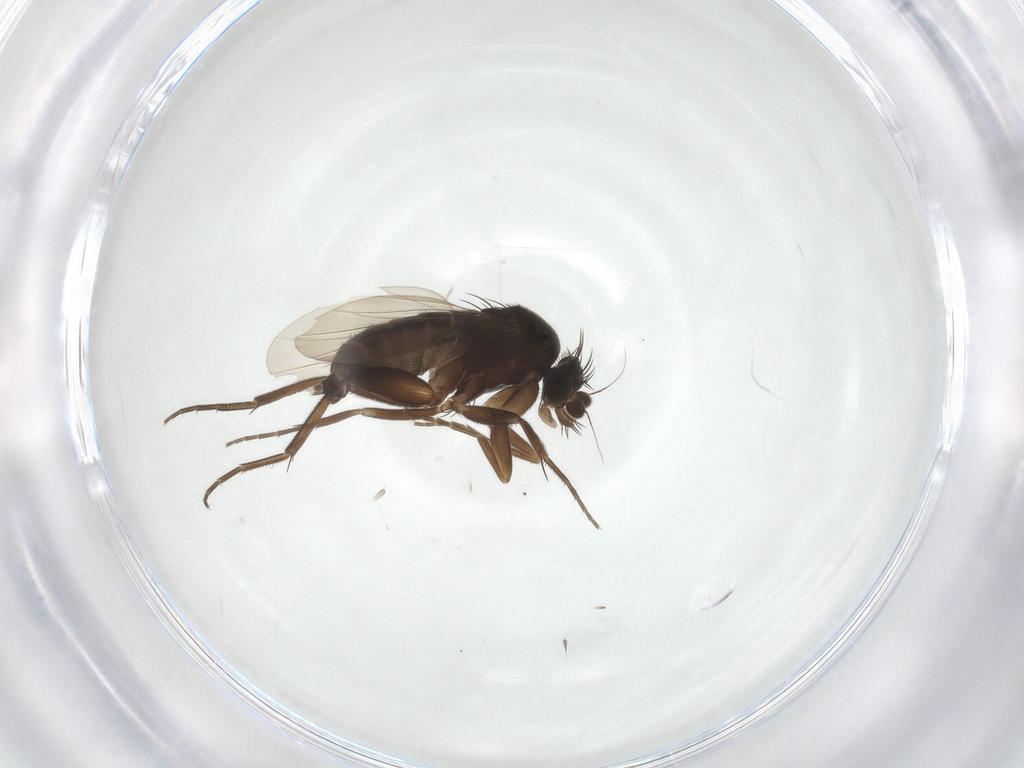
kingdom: Animalia
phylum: Arthropoda
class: Insecta
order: Diptera
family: Phoridae
